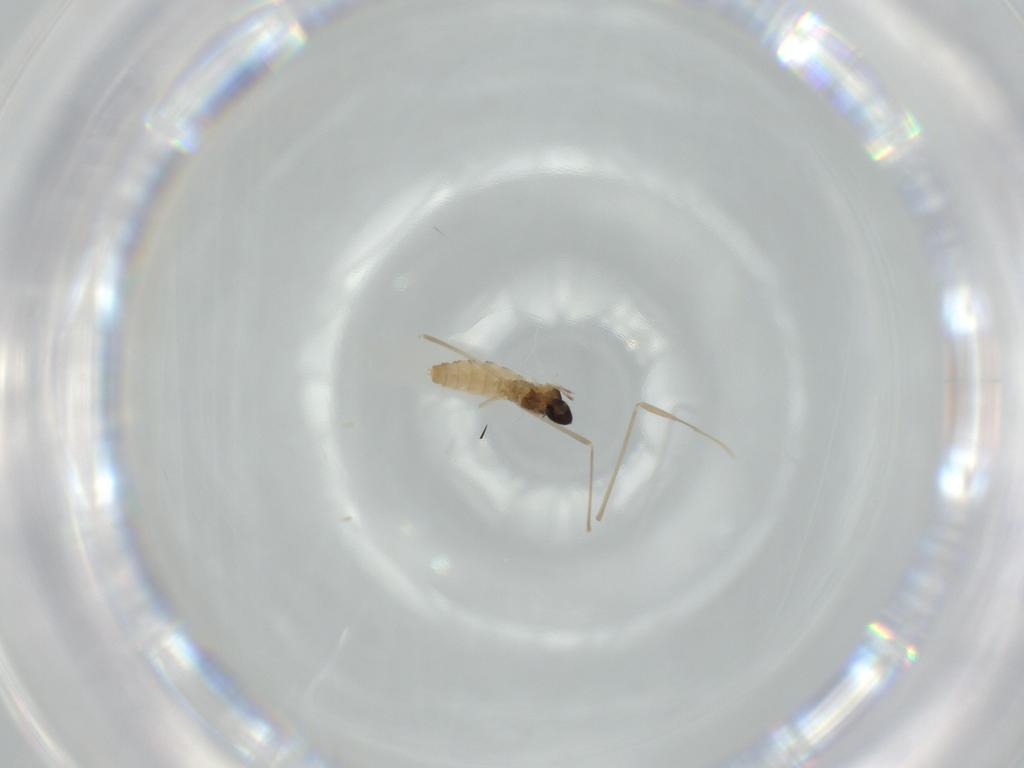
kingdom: Animalia
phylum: Arthropoda
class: Insecta
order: Diptera
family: Cecidomyiidae
